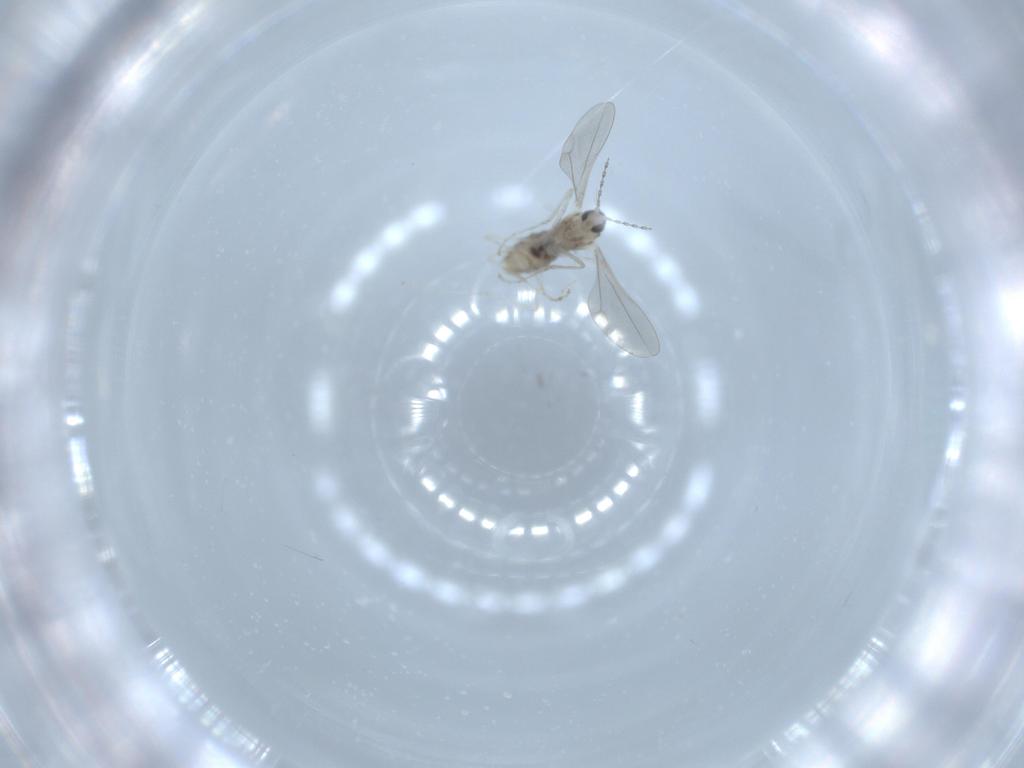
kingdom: Animalia
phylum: Arthropoda
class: Insecta
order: Diptera
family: Cecidomyiidae
